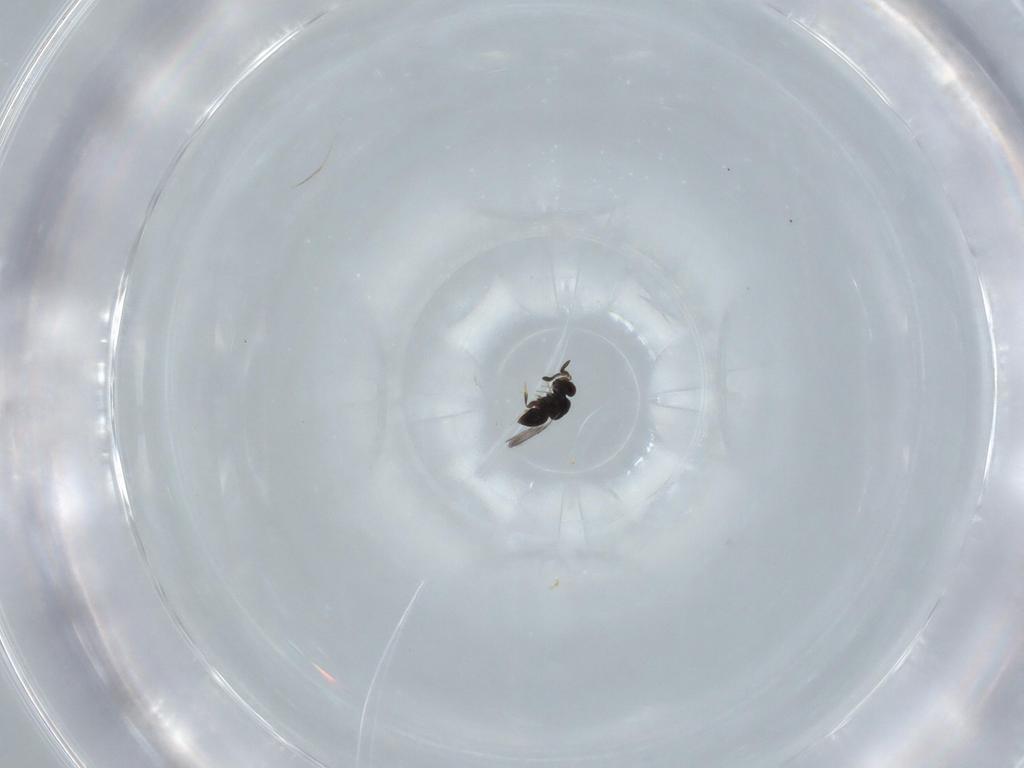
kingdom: Animalia
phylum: Arthropoda
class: Insecta
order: Hymenoptera
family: Ceraphronidae
